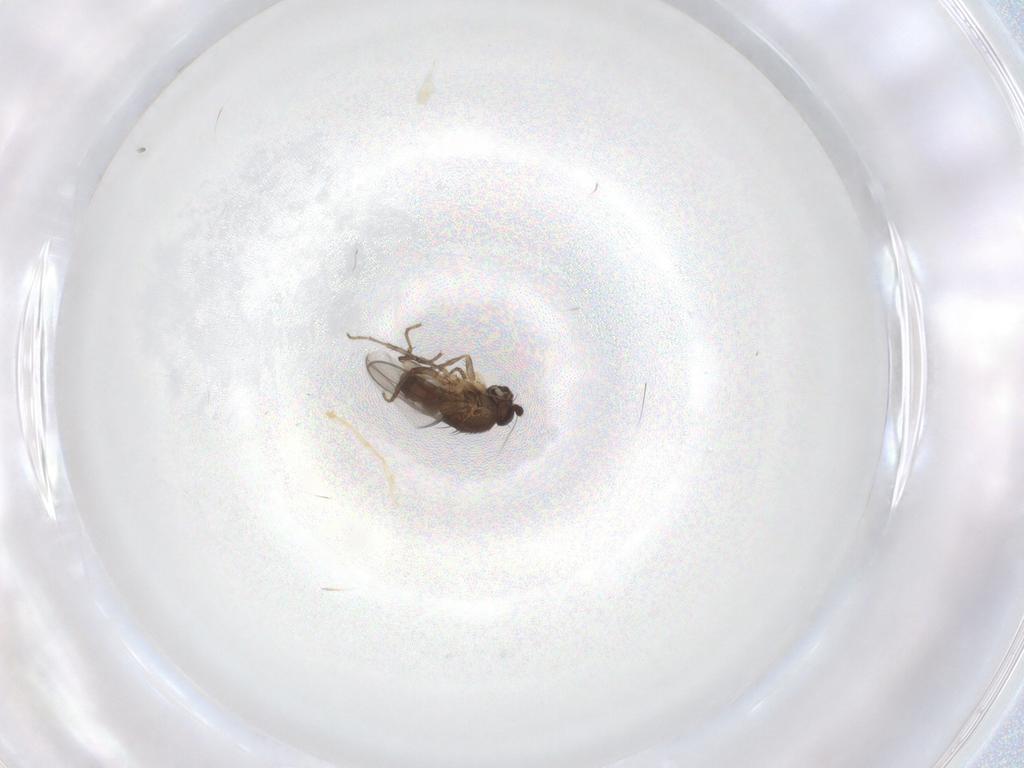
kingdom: Animalia
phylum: Arthropoda
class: Insecta
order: Diptera
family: Sphaeroceridae
